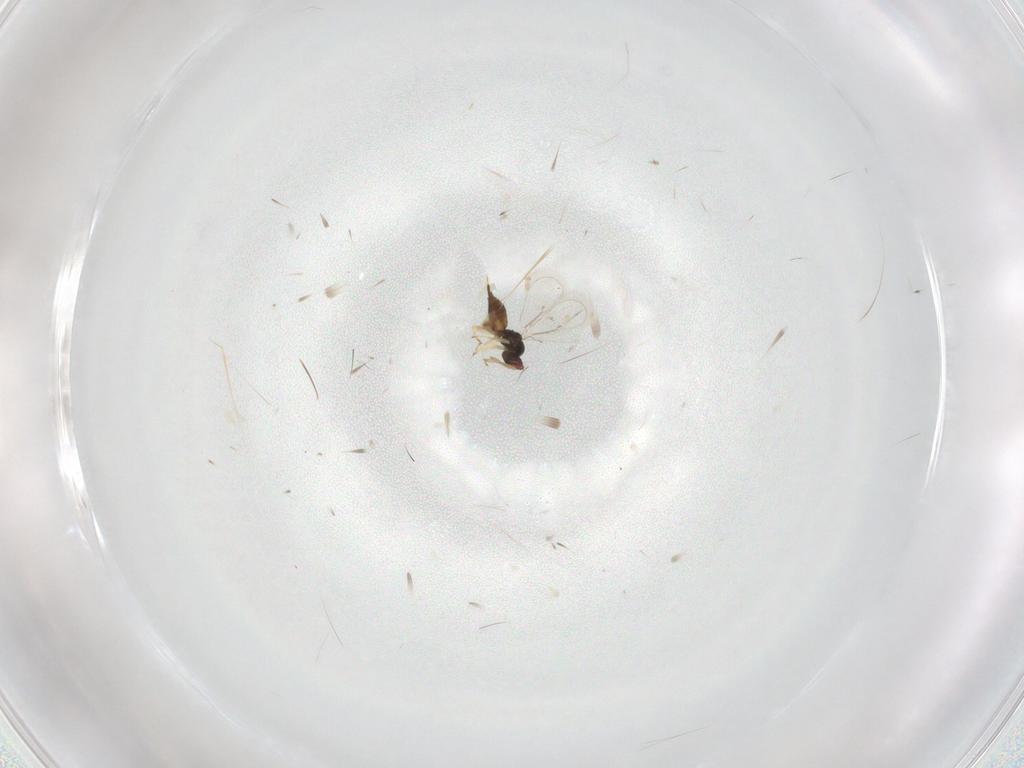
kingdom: Animalia
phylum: Arthropoda
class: Insecta
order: Hymenoptera
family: Eulophidae
